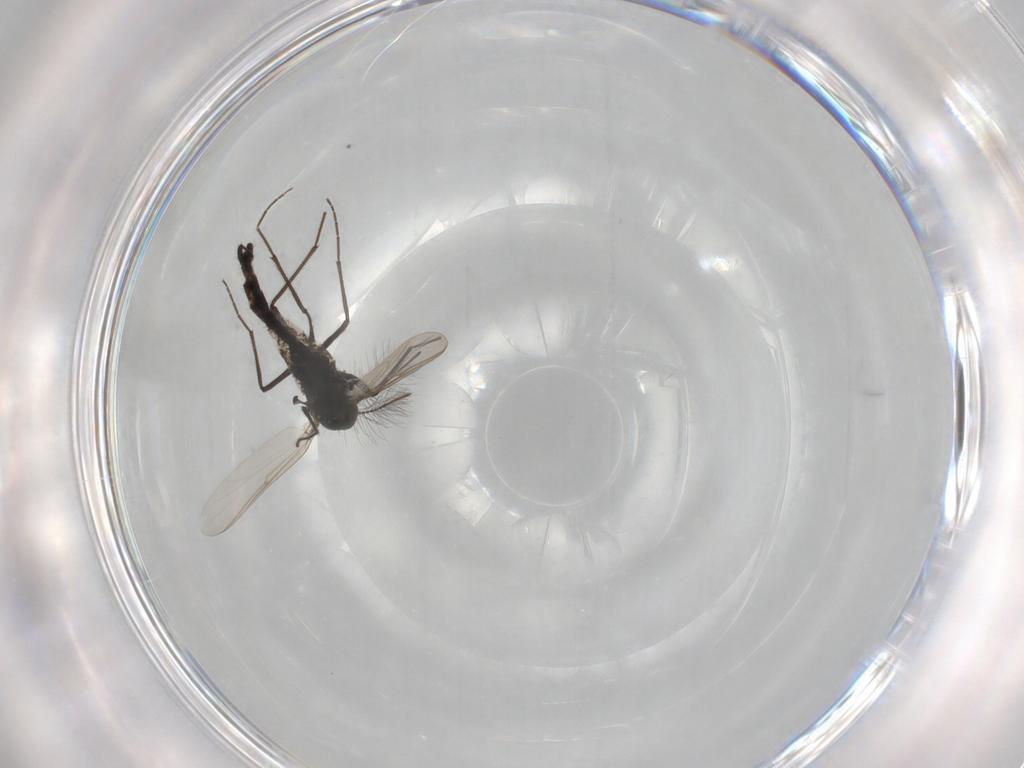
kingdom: Animalia
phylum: Arthropoda
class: Insecta
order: Diptera
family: Chironomidae
